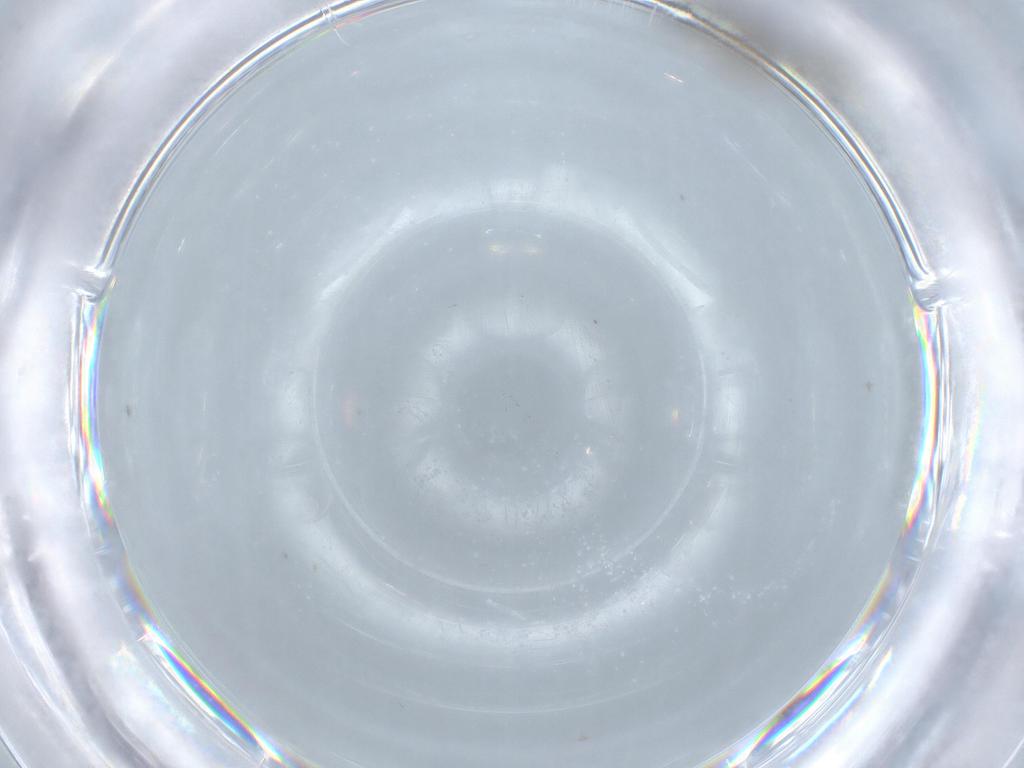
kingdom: Animalia
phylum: Arthropoda
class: Insecta
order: Hymenoptera
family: Scelionidae
